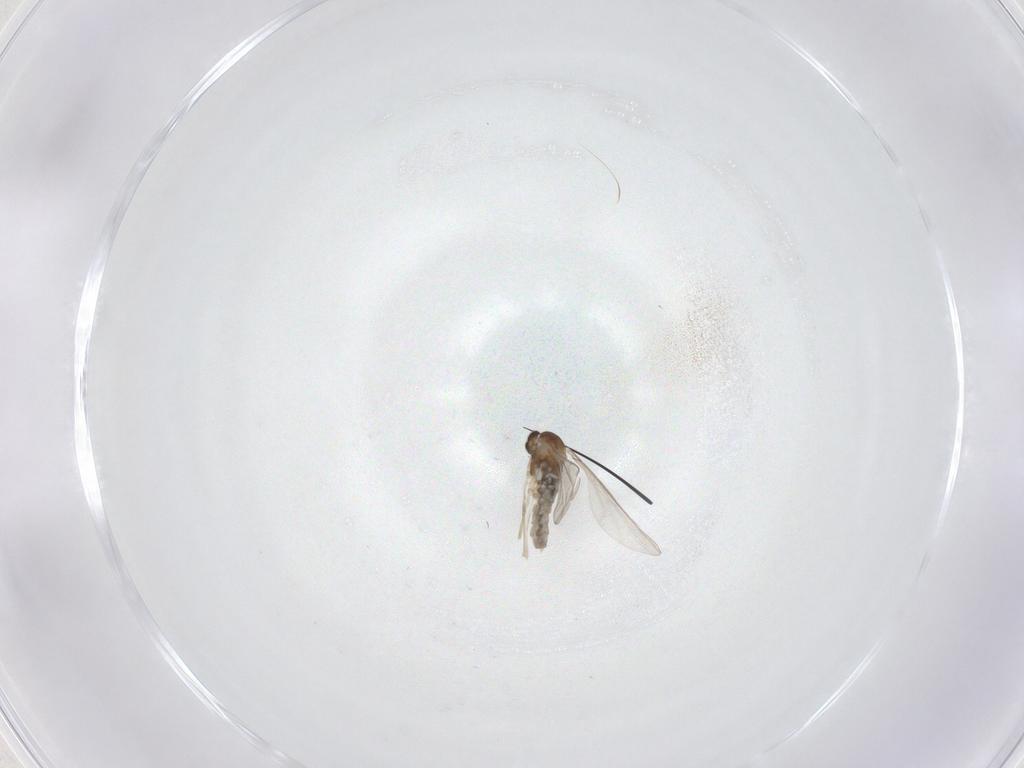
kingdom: Animalia
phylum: Arthropoda
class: Insecta
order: Diptera
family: Cecidomyiidae
